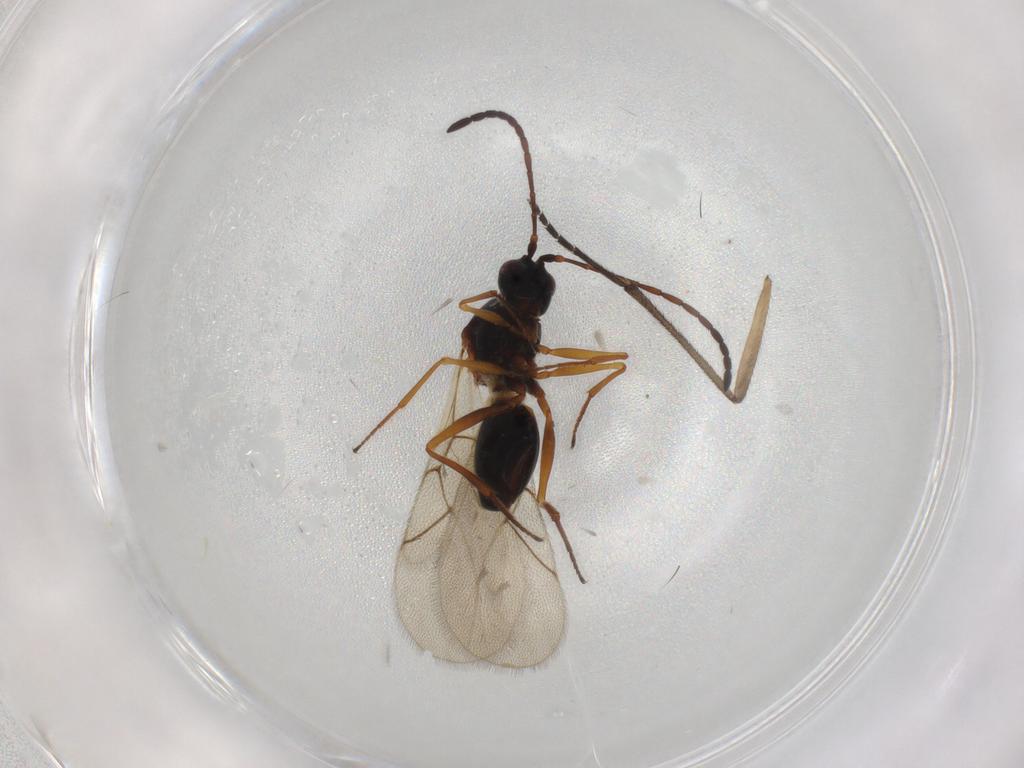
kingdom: Animalia
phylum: Arthropoda
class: Insecta
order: Hymenoptera
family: Figitidae
